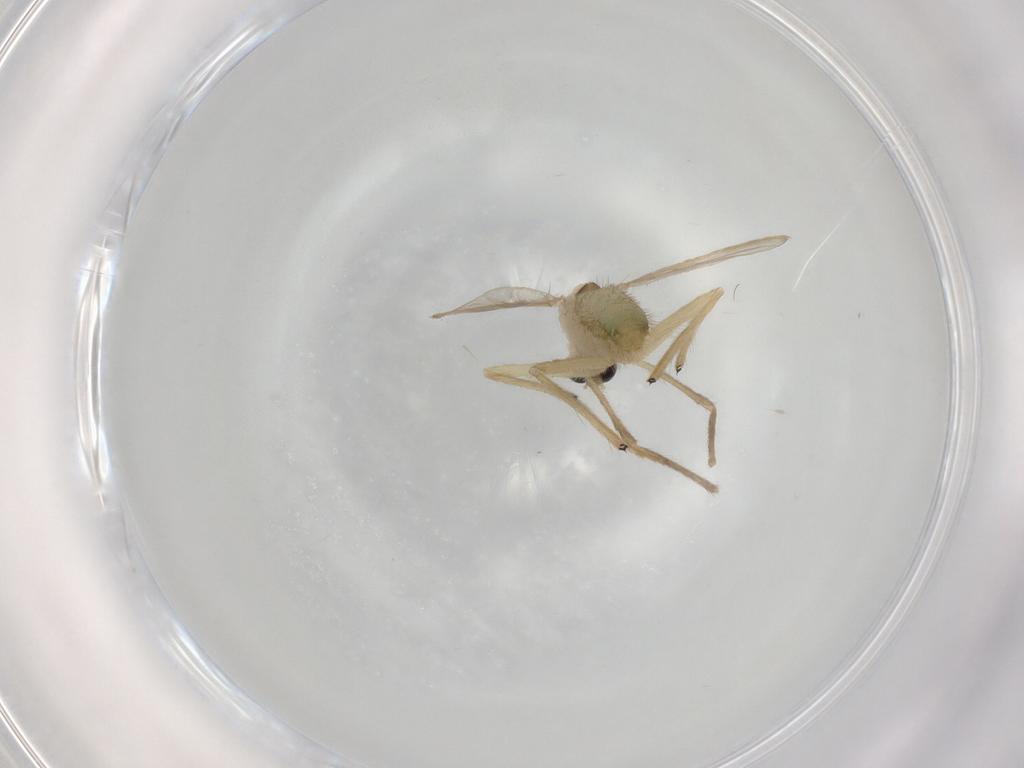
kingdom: Animalia
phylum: Arthropoda
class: Insecta
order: Diptera
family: Chironomidae
